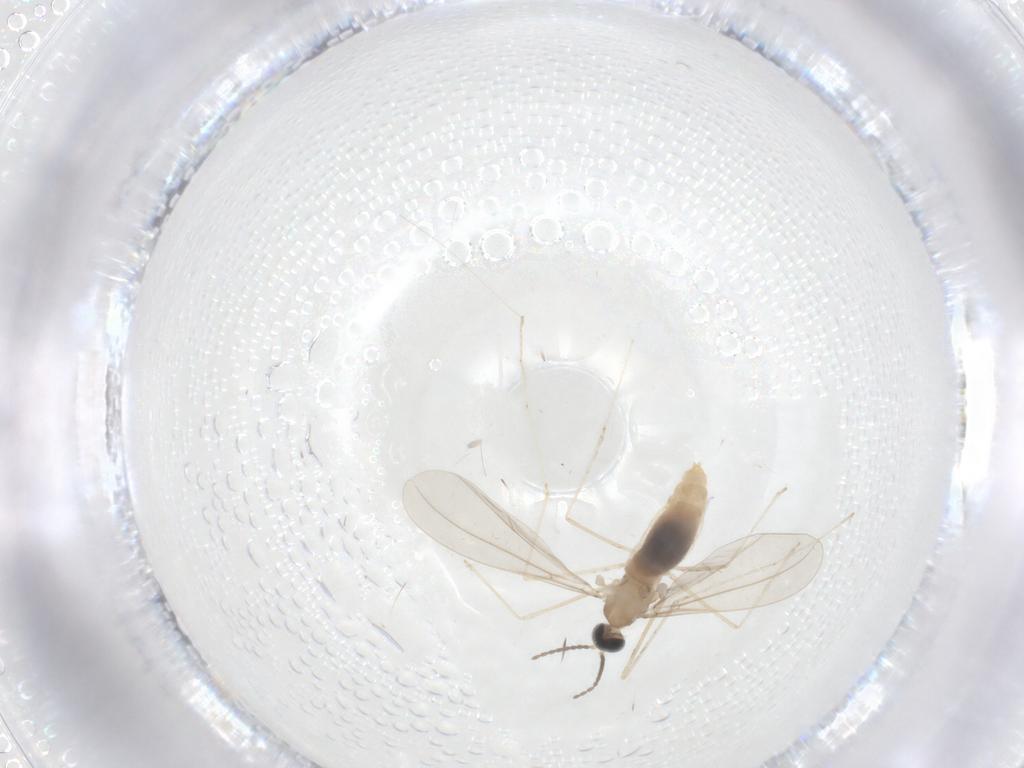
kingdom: Animalia
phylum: Arthropoda
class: Insecta
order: Diptera
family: Cecidomyiidae
